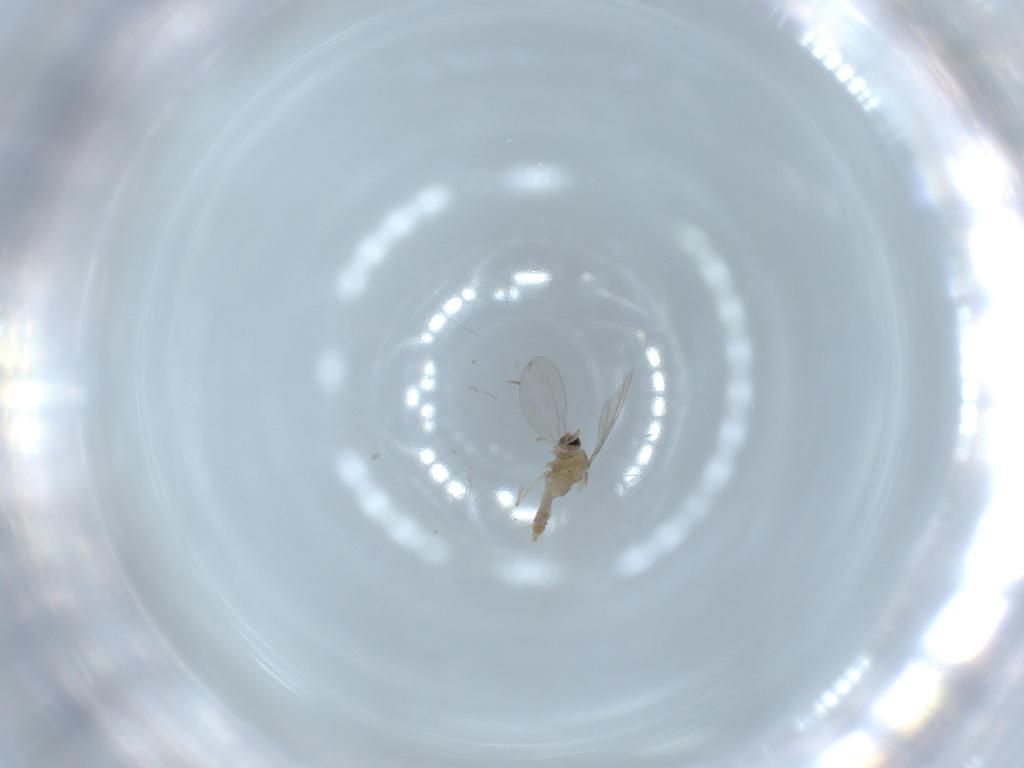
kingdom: Animalia
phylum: Arthropoda
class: Insecta
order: Diptera
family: Cecidomyiidae
